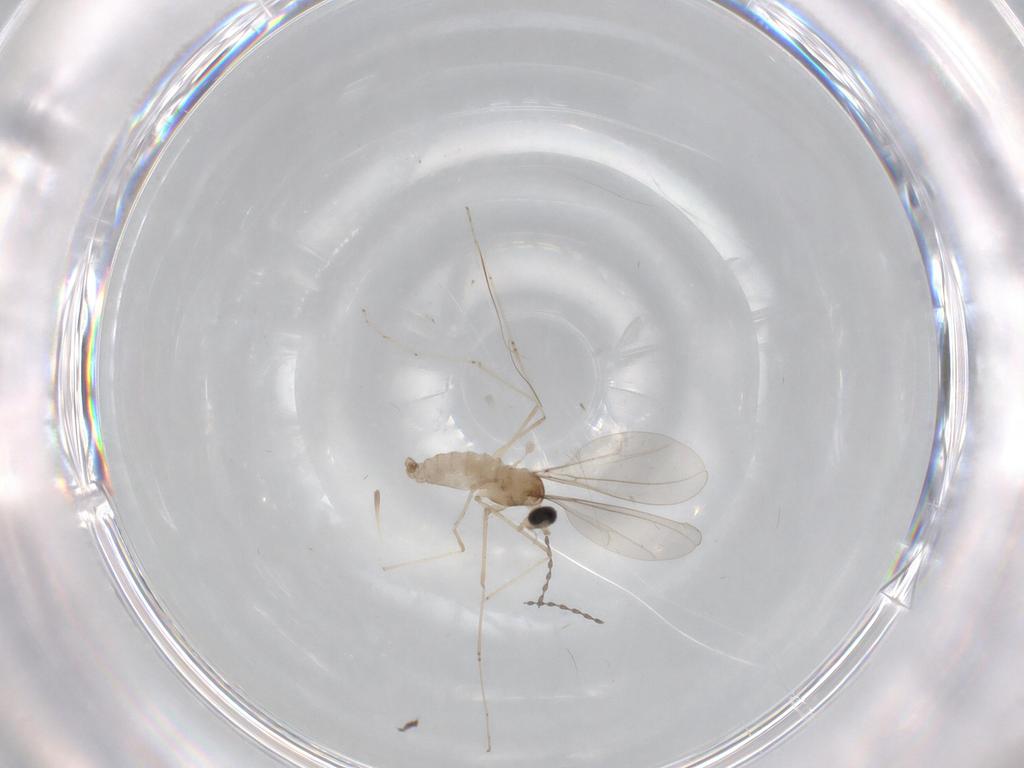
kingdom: Animalia
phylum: Arthropoda
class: Insecta
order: Diptera
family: Cecidomyiidae
